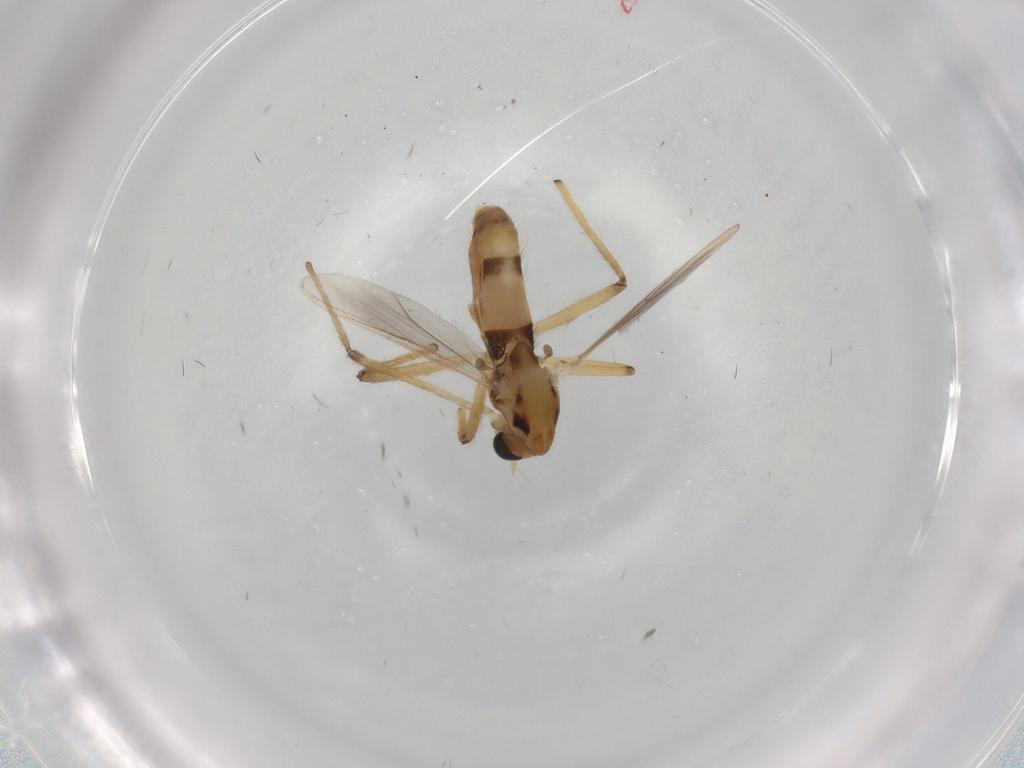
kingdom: Animalia
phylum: Arthropoda
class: Insecta
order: Diptera
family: Chironomidae
